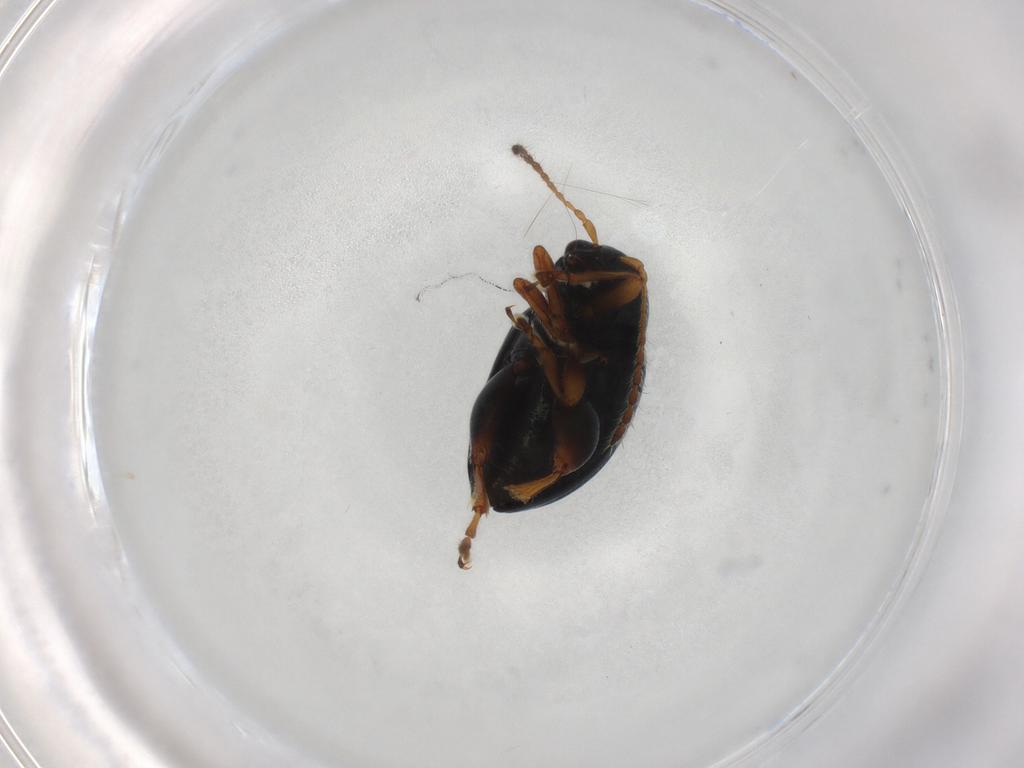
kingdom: Animalia
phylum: Arthropoda
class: Insecta
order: Coleoptera
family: Chrysomelidae
